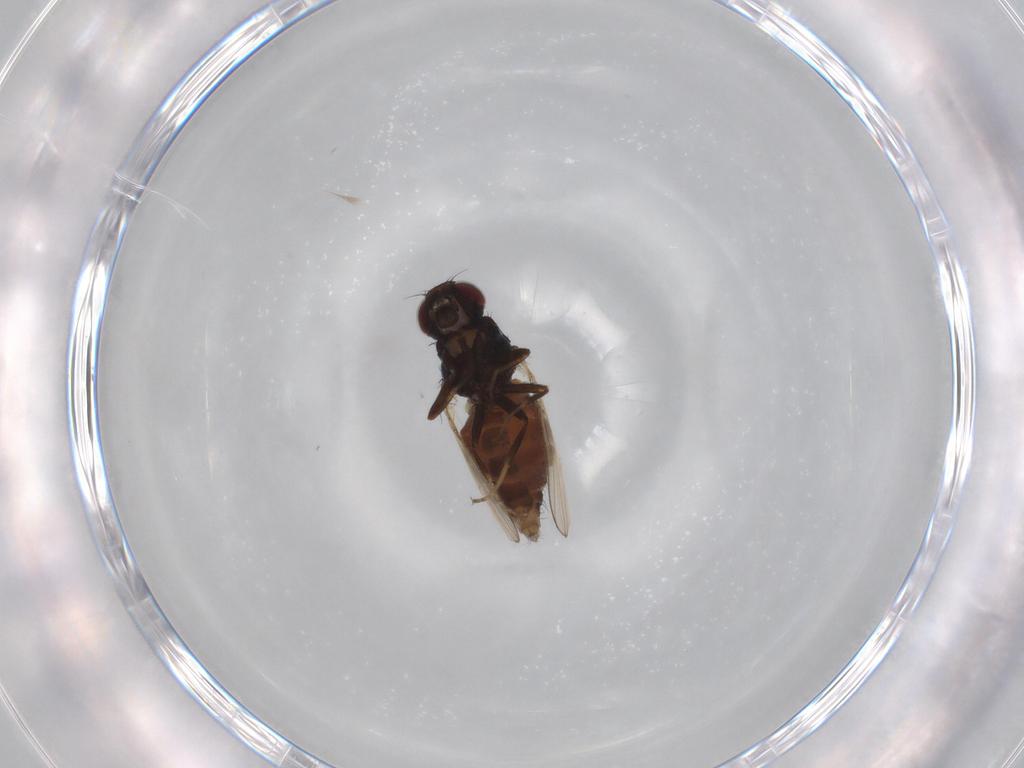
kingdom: Animalia
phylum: Arthropoda
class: Insecta
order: Diptera
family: Carnidae
